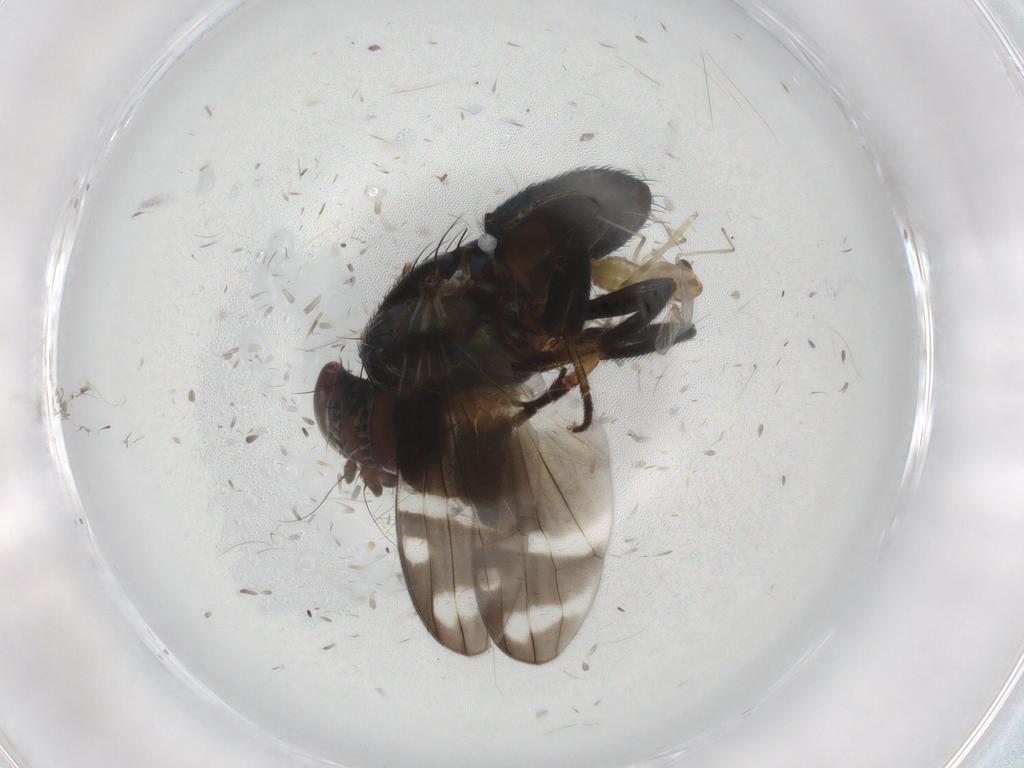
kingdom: Animalia
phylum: Arthropoda
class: Insecta
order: Diptera
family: Chironomidae
